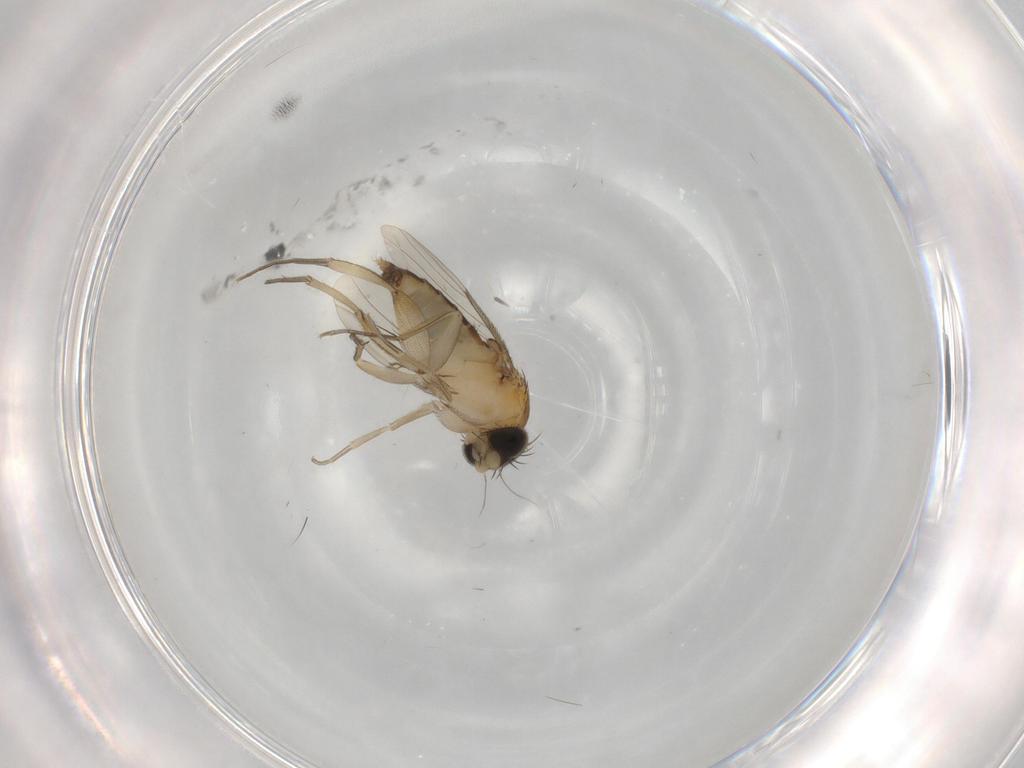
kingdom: Animalia
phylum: Arthropoda
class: Insecta
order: Diptera
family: Phoridae
